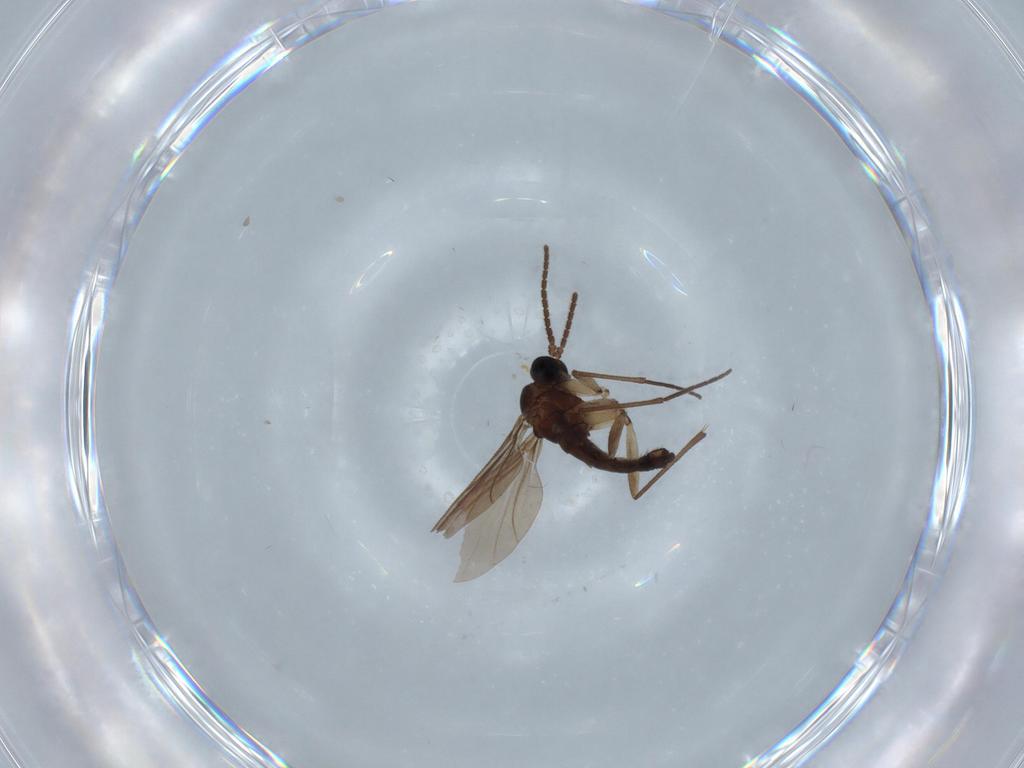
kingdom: Animalia
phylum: Arthropoda
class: Insecta
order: Diptera
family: Sciaridae
